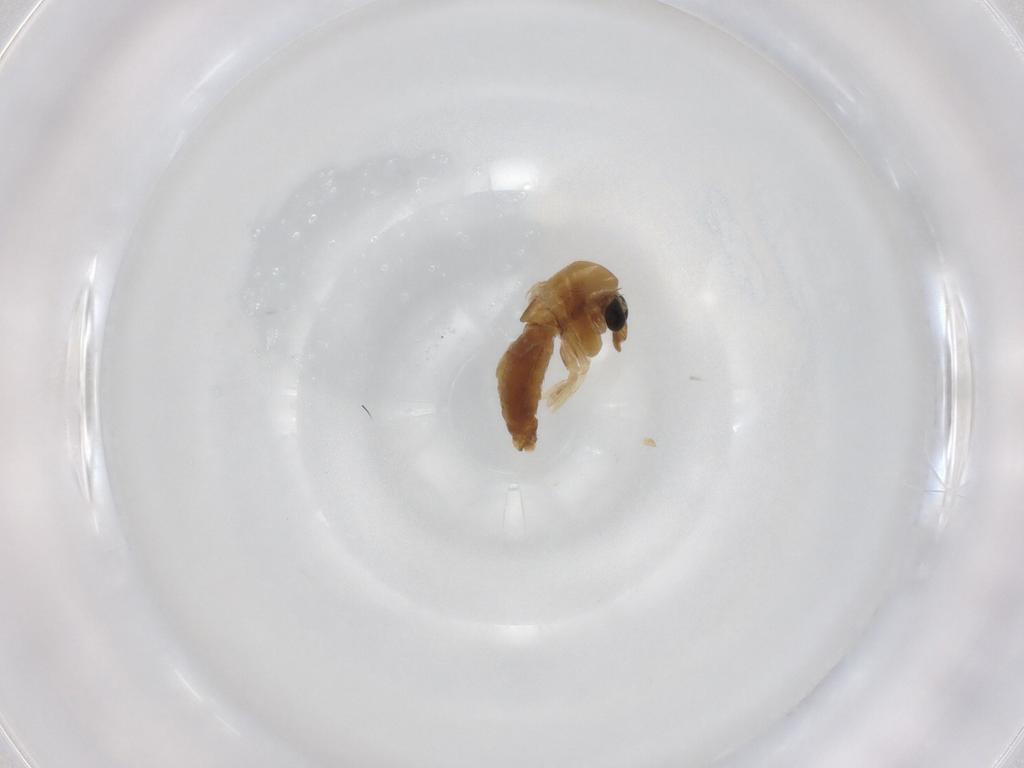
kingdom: Animalia
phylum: Arthropoda
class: Insecta
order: Diptera
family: Chironomidae
